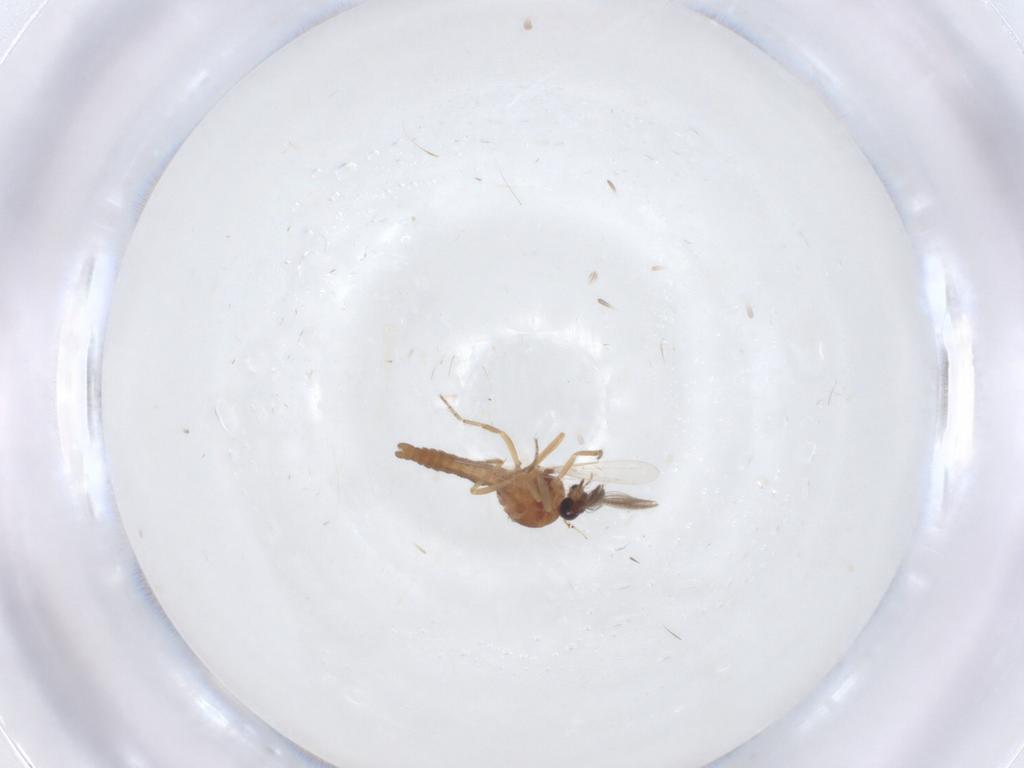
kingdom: Animalia
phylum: Arthropoda
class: Insecta
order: Diptera
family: Ceratopogonidae
